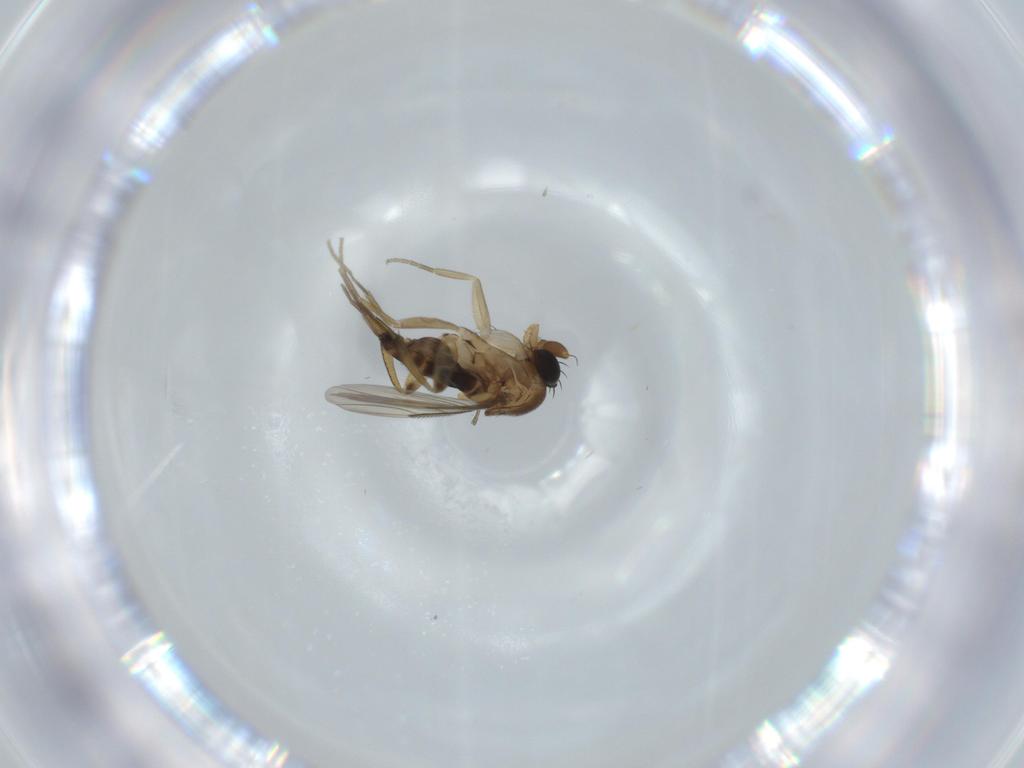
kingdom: Animalia
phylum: Arthropoda
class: Insecta
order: Diptera
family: Phoridae
